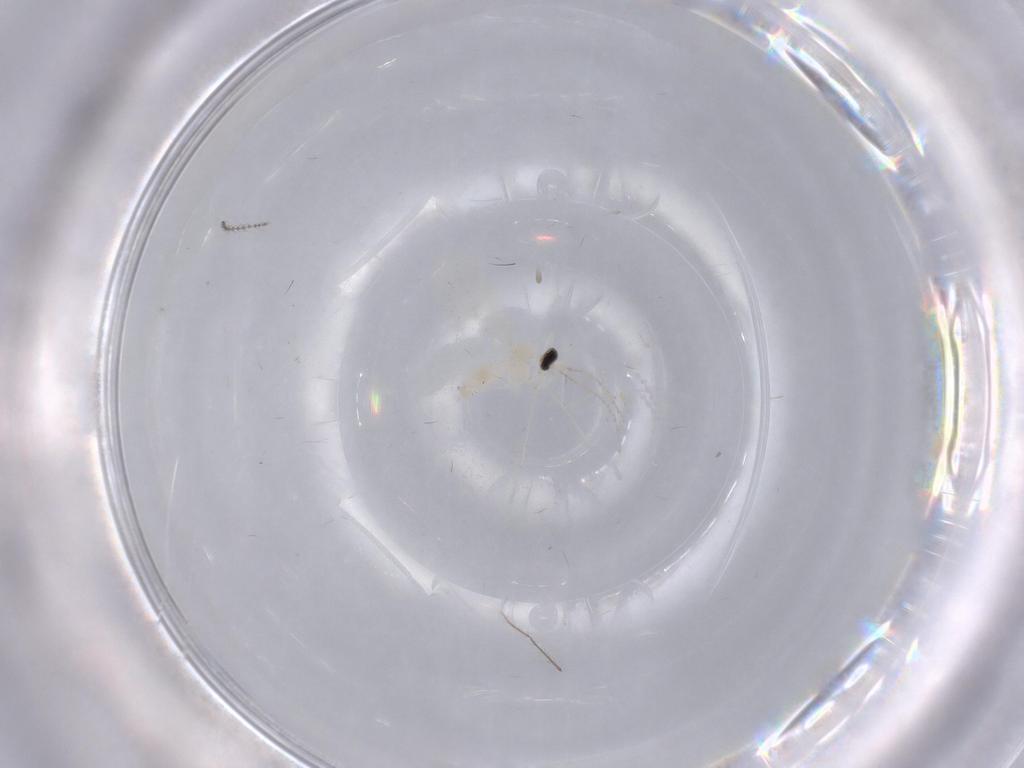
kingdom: Animalia
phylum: Arthropoda
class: Insecta
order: Diptera
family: Cecidomyiidae
